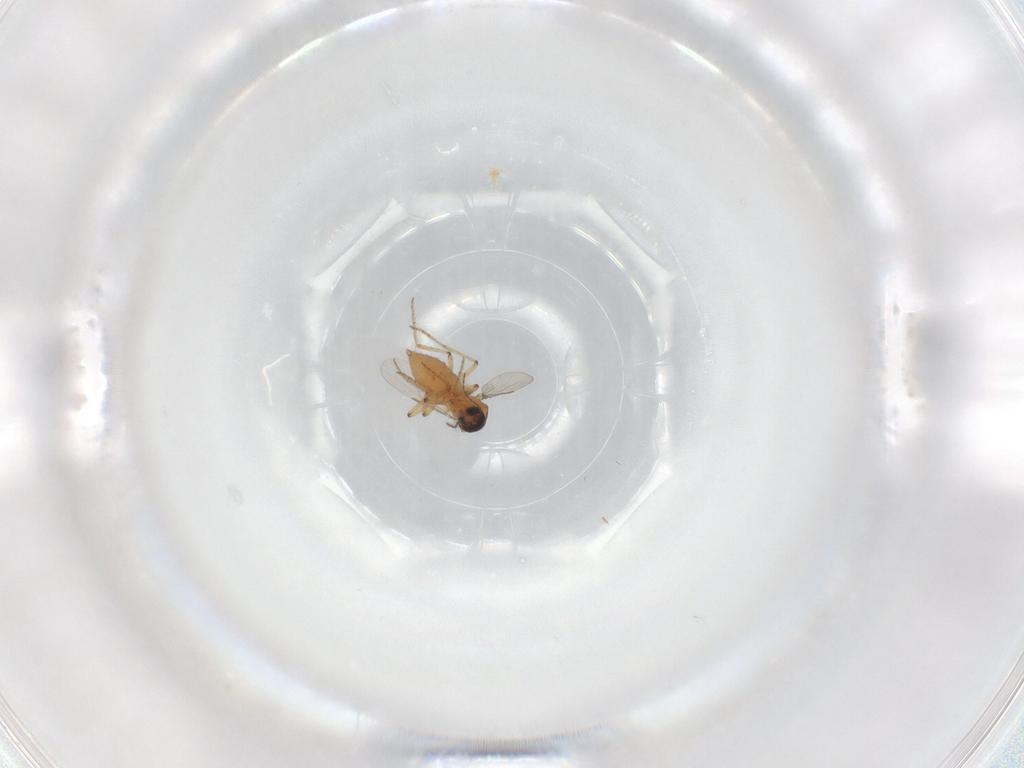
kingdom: Animalia
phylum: Arthropoda
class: Insecta
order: Diptera
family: Ceratopogonidae
